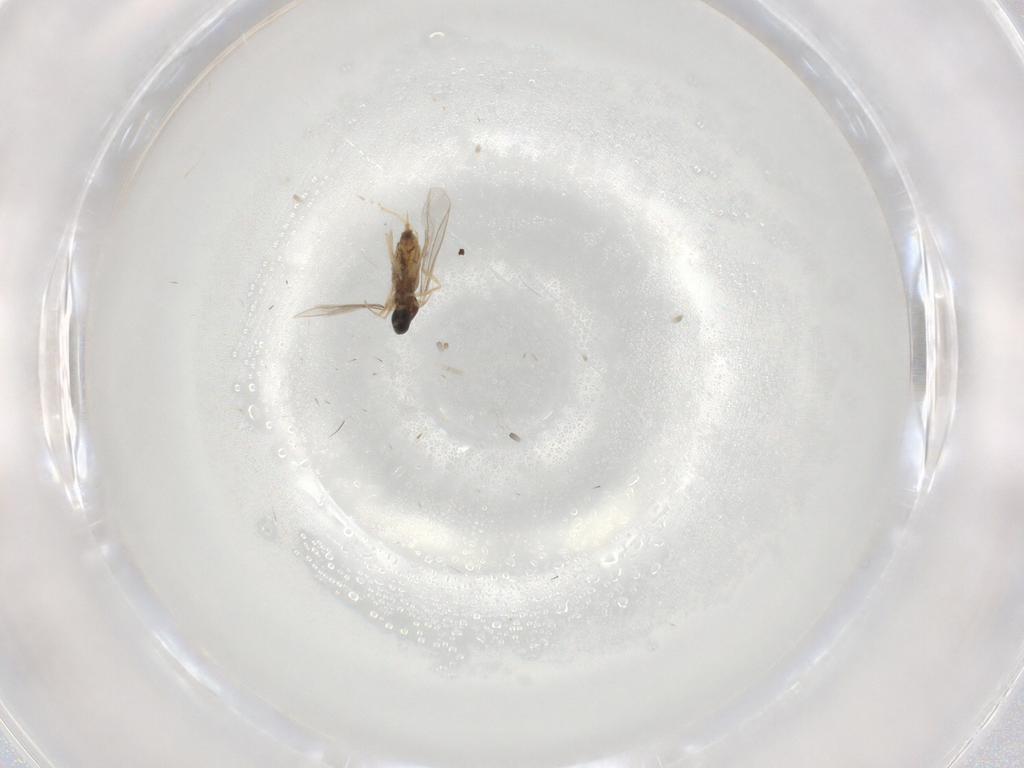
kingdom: Animalia
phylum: Arthropoda
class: Insecta
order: Diptera
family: Cecidomyiidae
